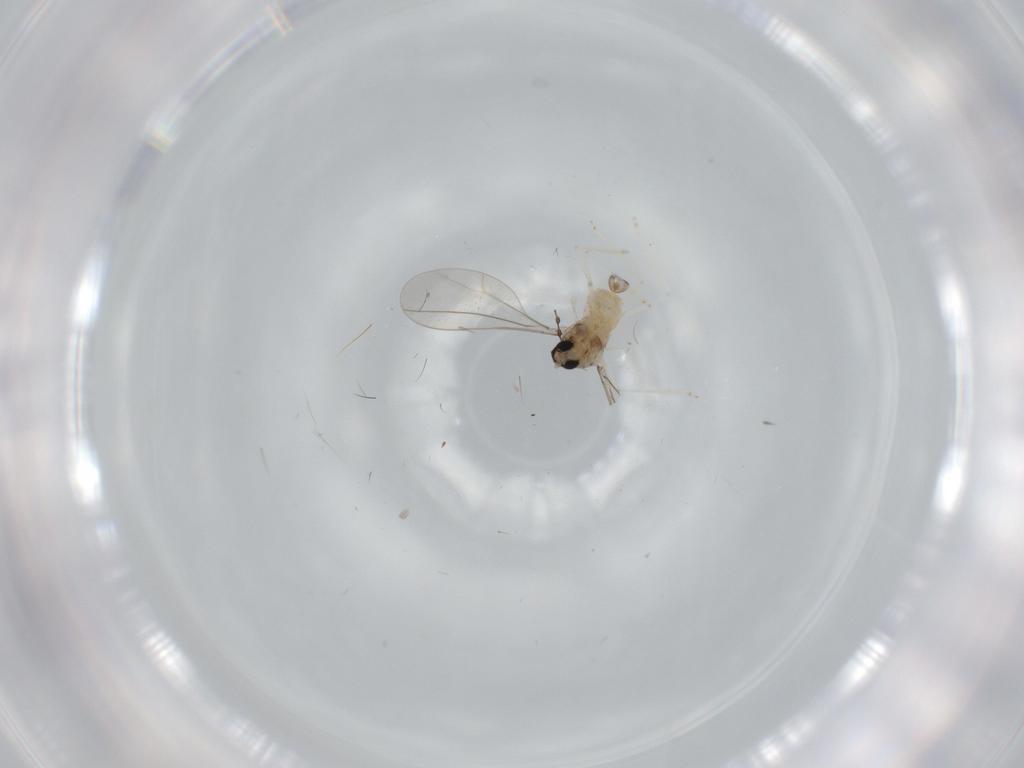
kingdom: Animalia
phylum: Arthropoda
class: Insecta
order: Diptera
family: Cecidomyiidae
